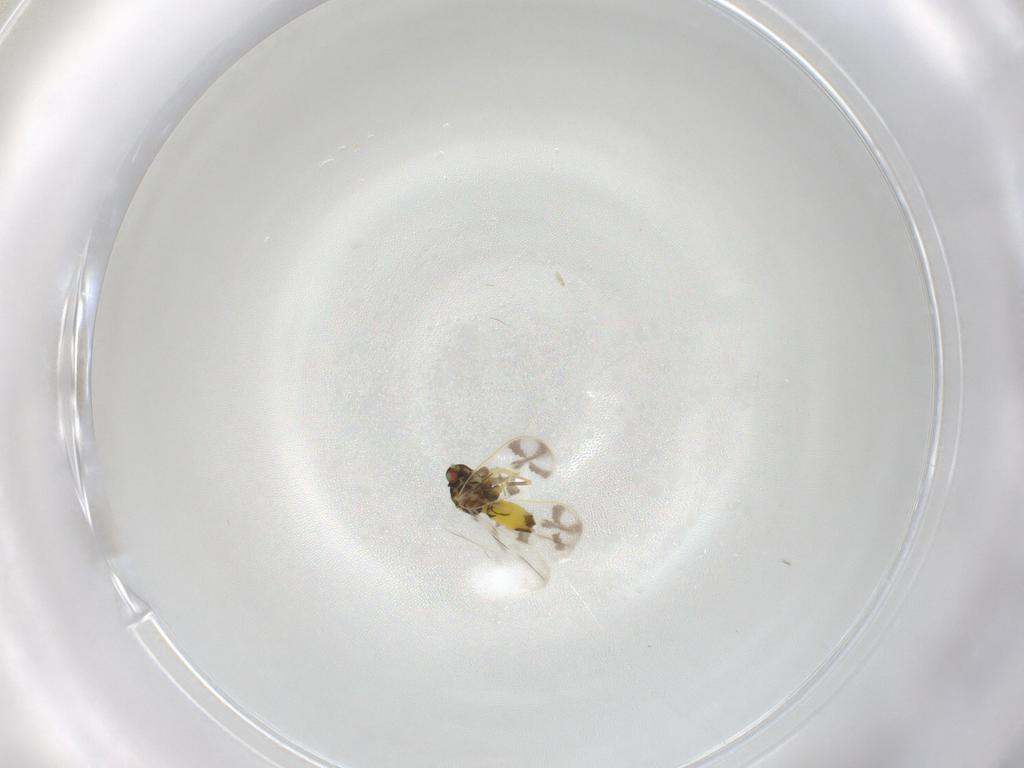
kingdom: Animalia
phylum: Arthropoda
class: Insecta
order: Hemiptera
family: Aleyrodidae
